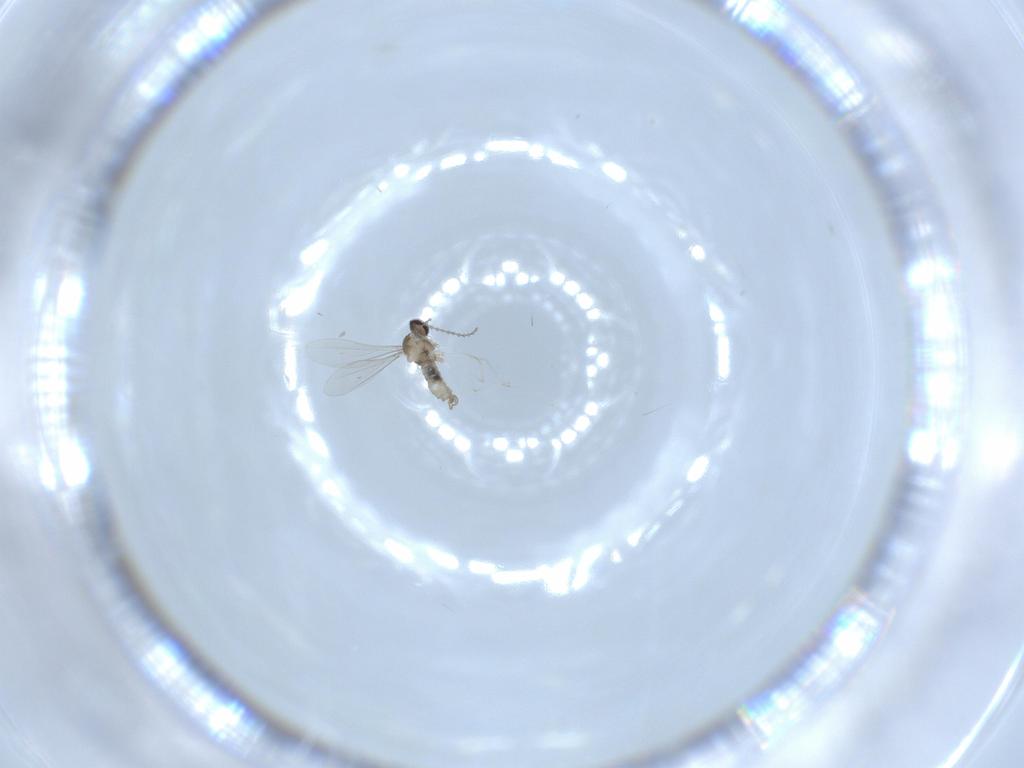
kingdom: Animalia
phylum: Arthropoda
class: Insecta
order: Diptera
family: Cecidomyiidae
